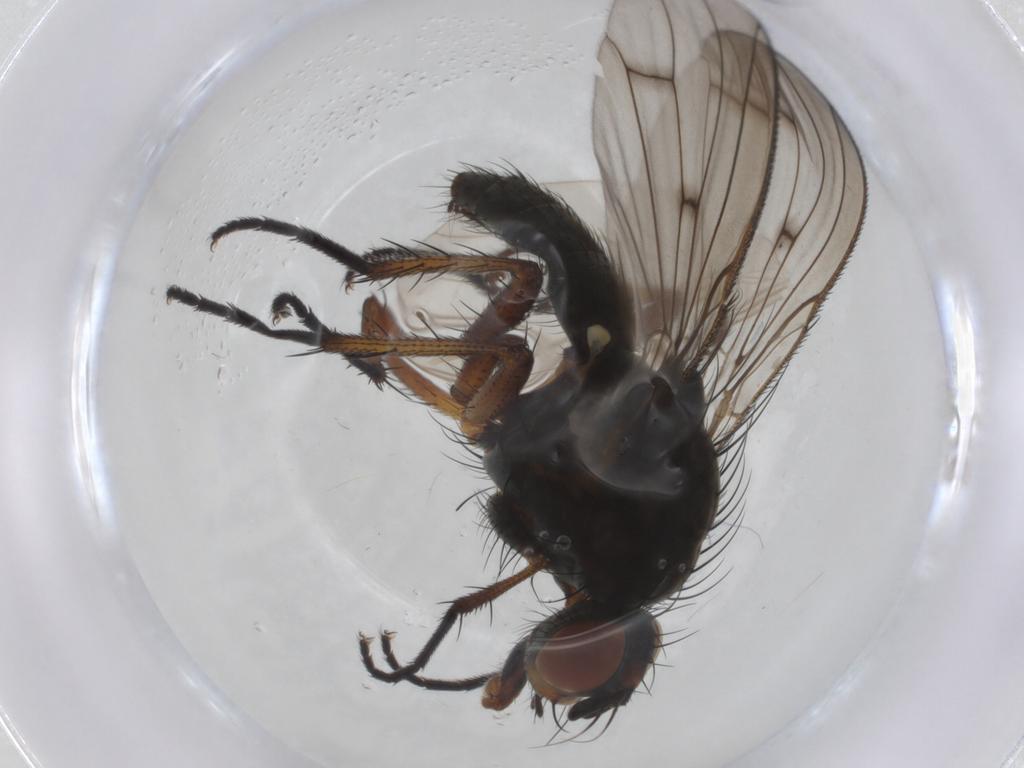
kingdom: Animalia
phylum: Arthropoda
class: Insecta
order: Diptera
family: Anthomyiidae
